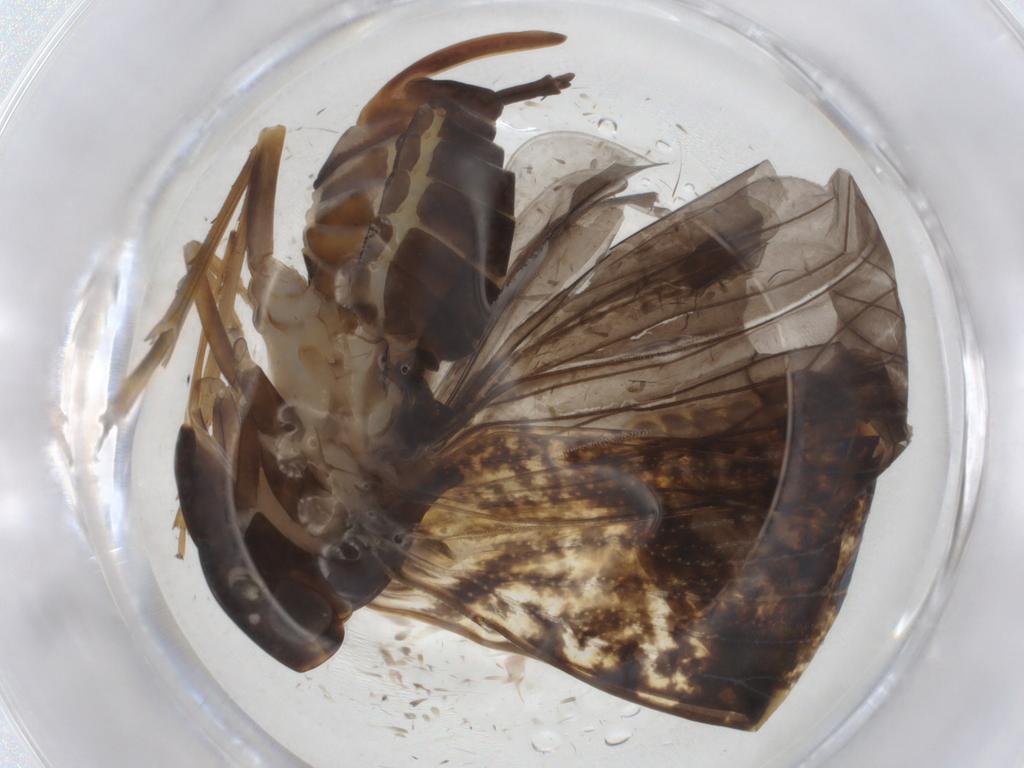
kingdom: Animalia
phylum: Arthropoda
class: Insecta
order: Hemiptera
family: Cixiidae
